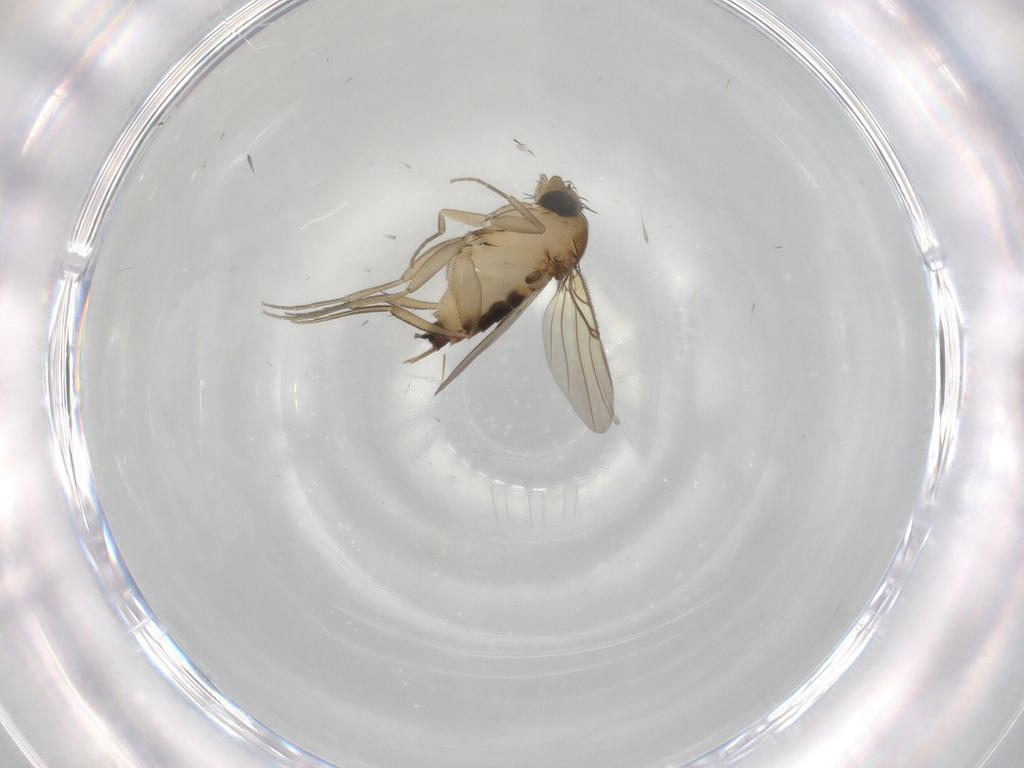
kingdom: Animalia
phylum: Arthropoda
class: Insecta
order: Diptera
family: Phoridae
